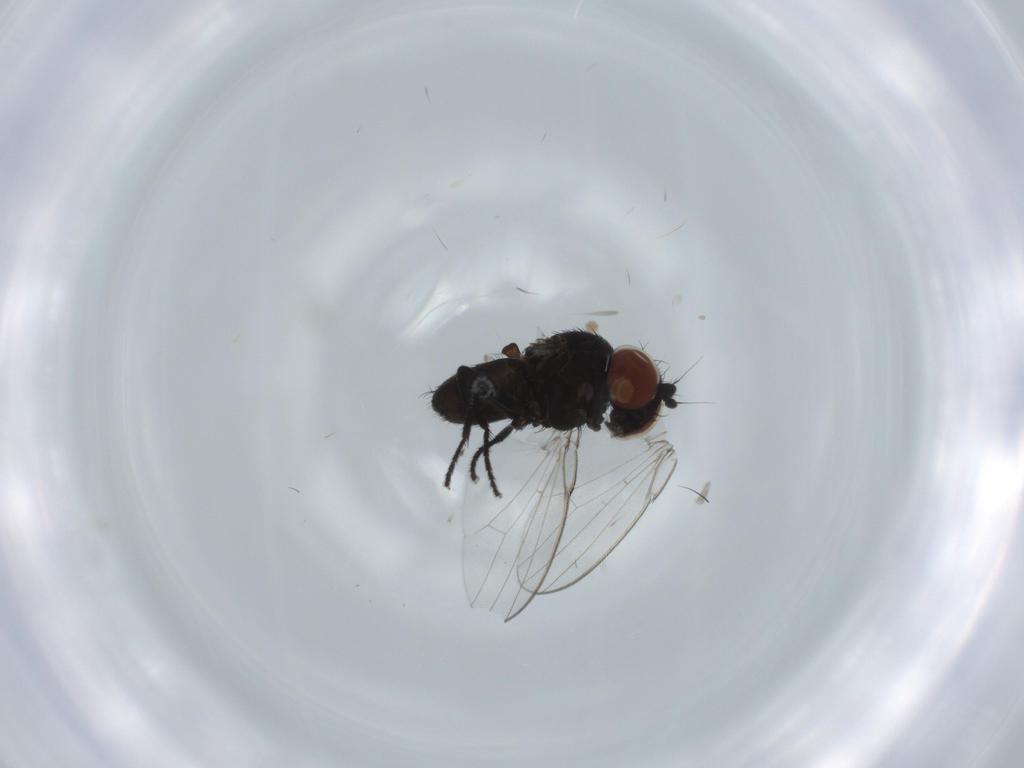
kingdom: Animalia
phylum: Arthropoda
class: Insecta
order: Diptera
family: Milichiidae
